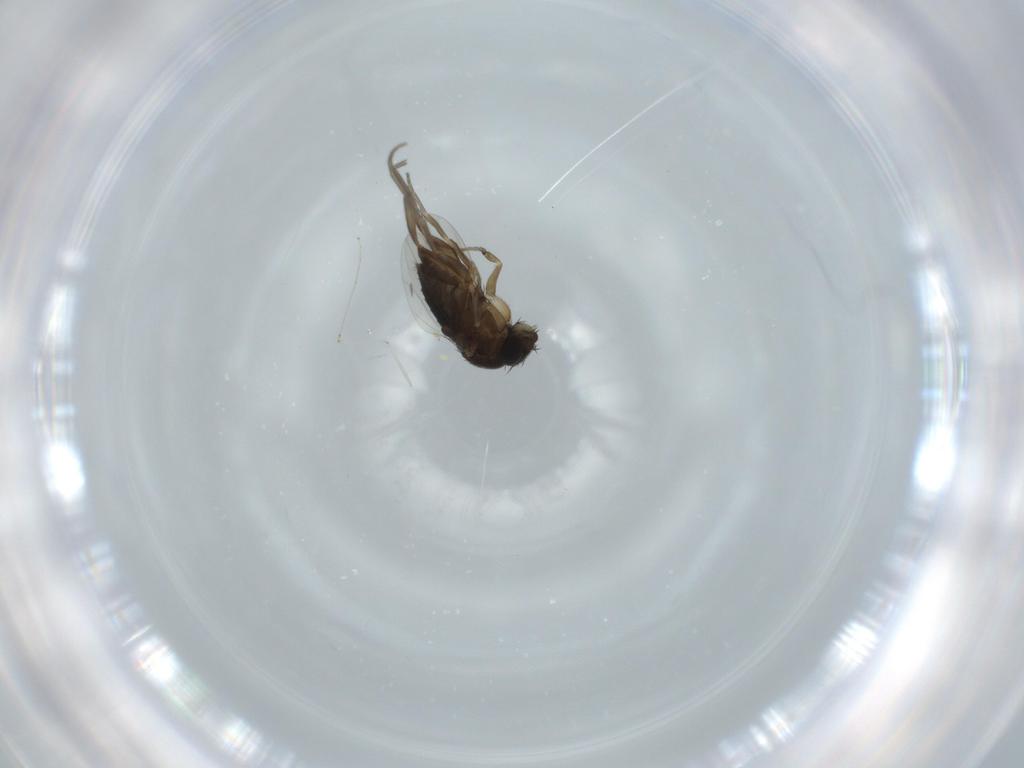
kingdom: Animalia
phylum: Arthropoda
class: Insecta
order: Diptera
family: Phoridae
